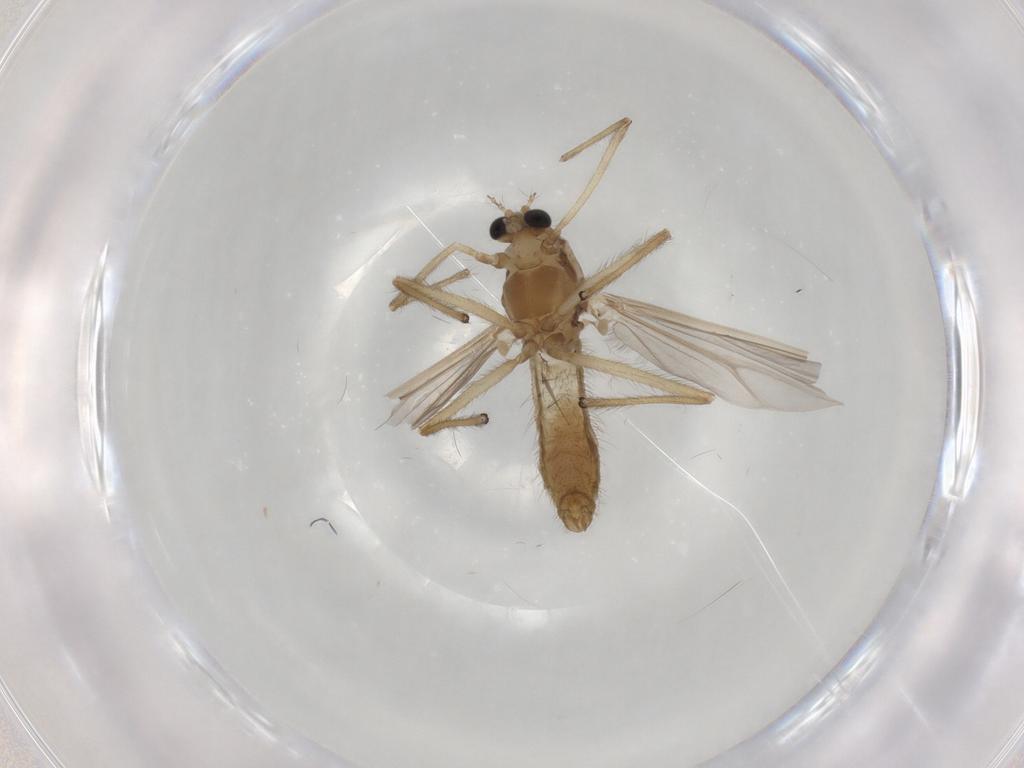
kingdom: Animalia
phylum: Arthropoda
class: Insecta
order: Diptera
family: Chironomidae
